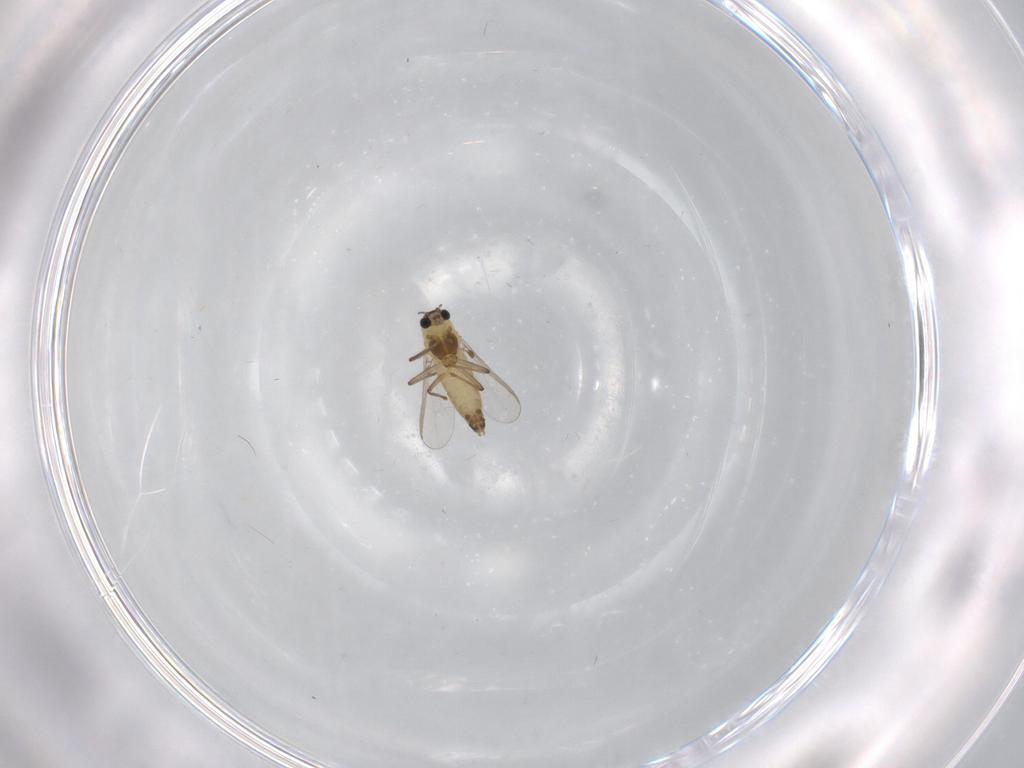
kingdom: Animalia
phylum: Arthropoda
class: Insecta
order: Diptera
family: Chironomidae
